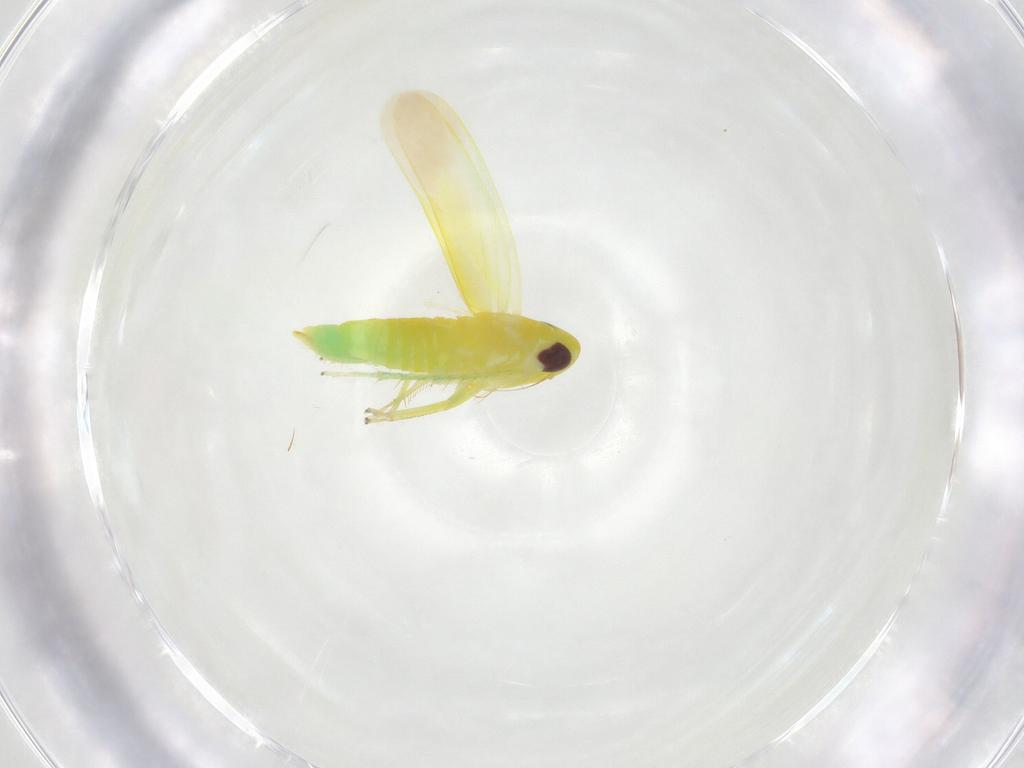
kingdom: Animalia
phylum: Arthropoda
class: Insecta
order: Hemiptera
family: Cicadellidae
